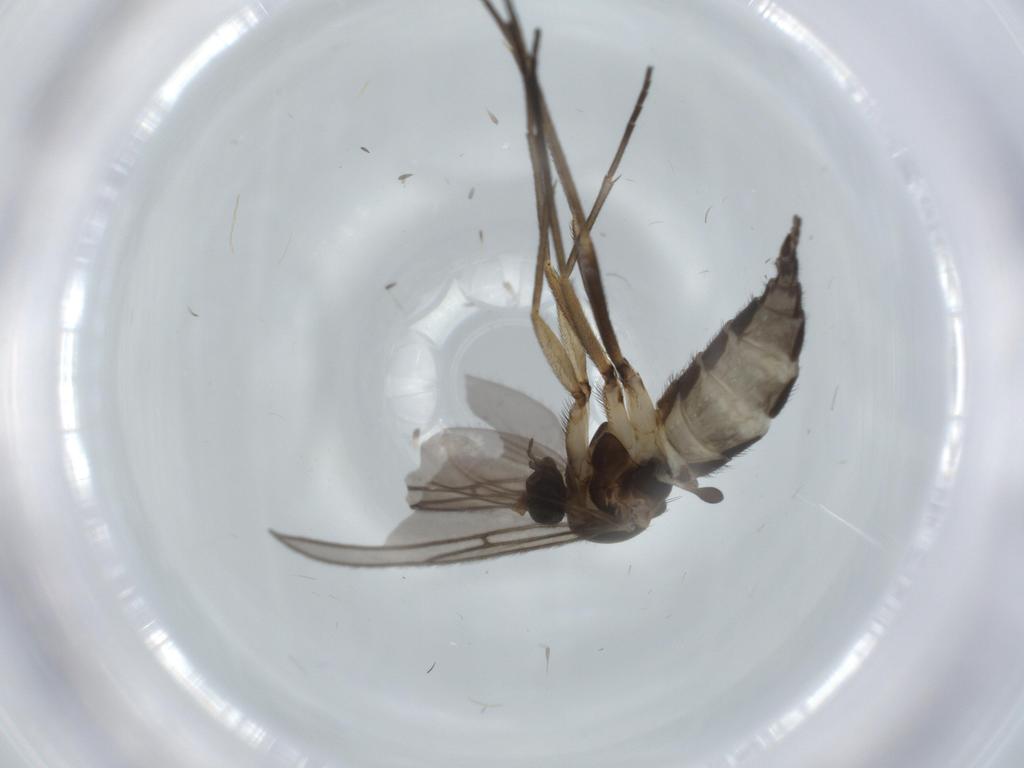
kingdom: Animalia
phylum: Arthropoda
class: Insecta
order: Diptera
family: Sciaridae
